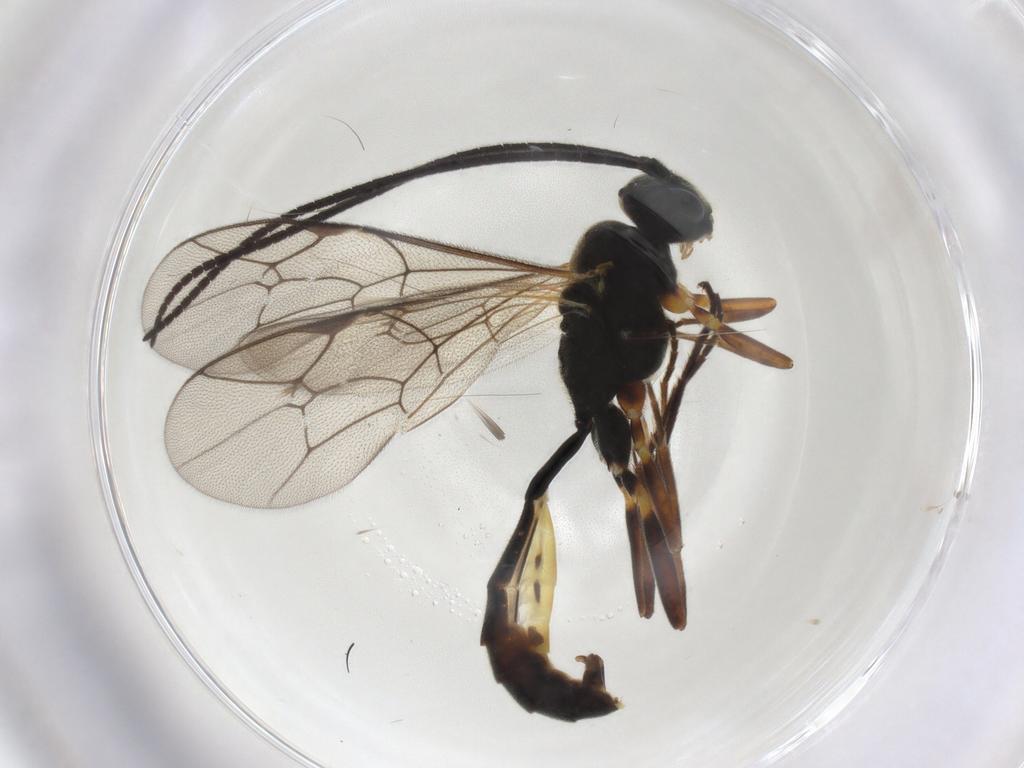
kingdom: Animalia
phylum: Arthropoda
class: Insecta
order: Hymenoptera
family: Ichneumonidae
